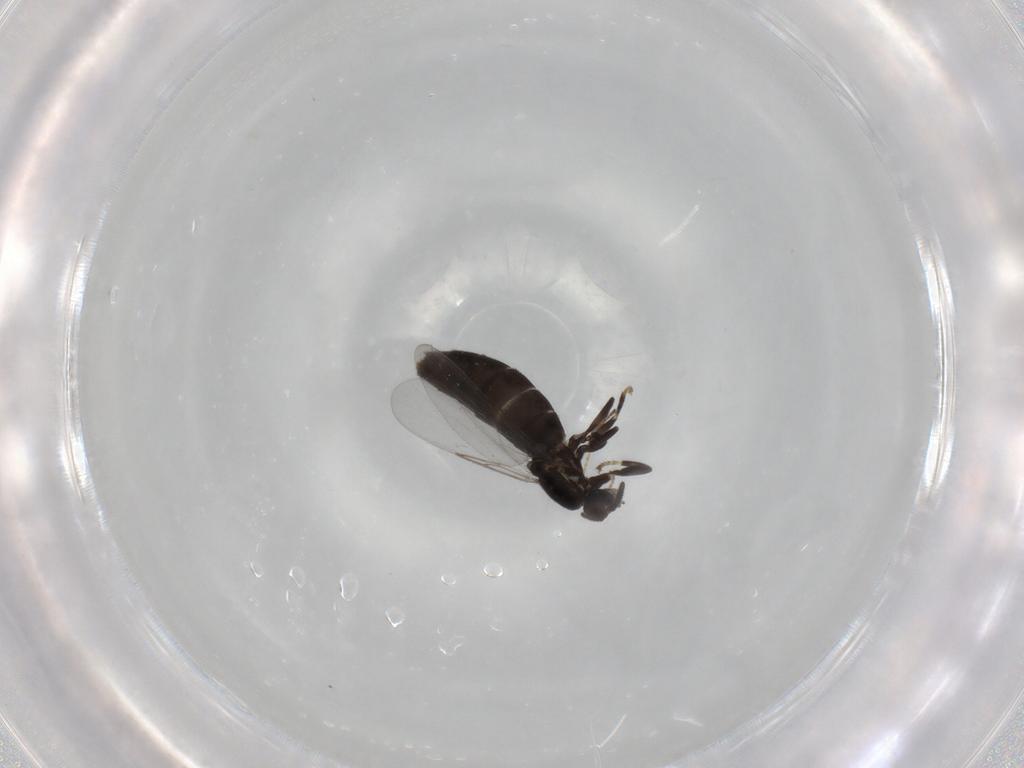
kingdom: Animalia
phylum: Arthropoda
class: Insecta
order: Diptera
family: Scatopsidae
